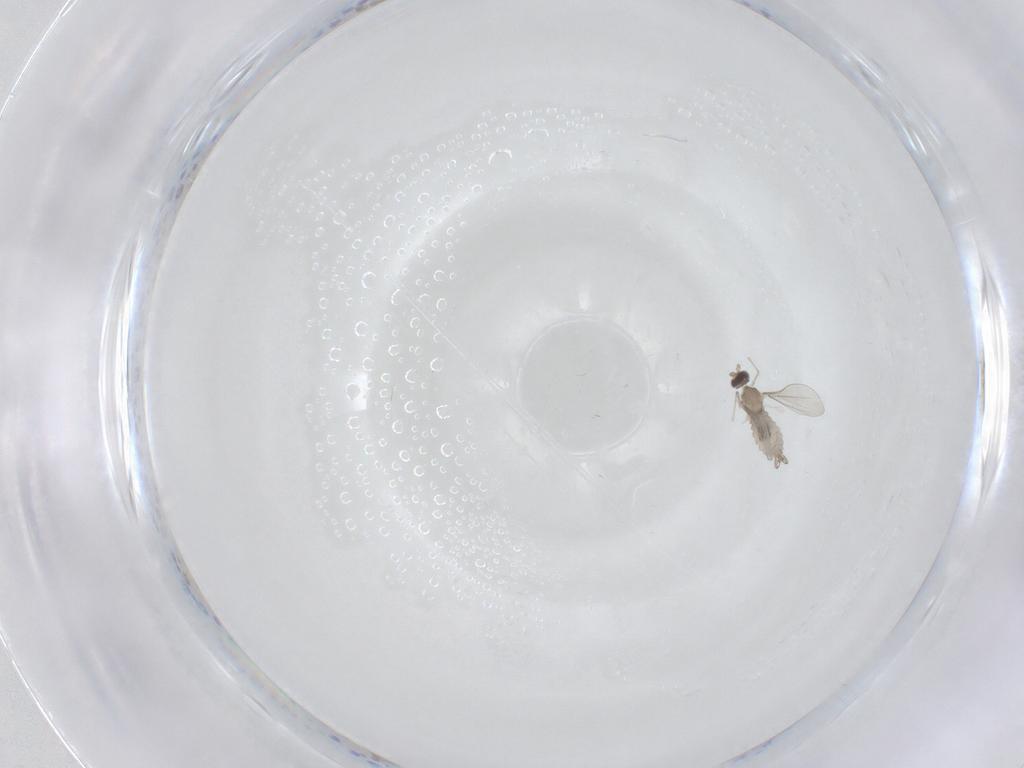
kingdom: Animalia
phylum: Arthropoda
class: Insecta
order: Diptera
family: Cecidomyiidae
